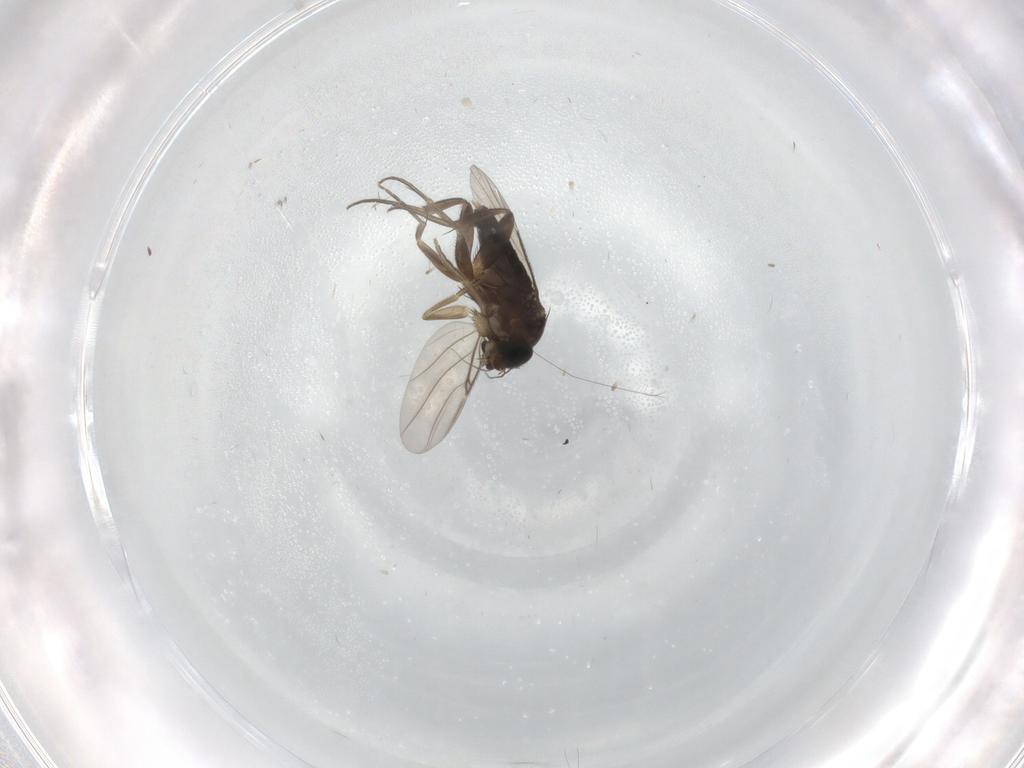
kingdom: Animalia
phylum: Arthropoda
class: Insecta
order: Diptera
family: Phoridae
